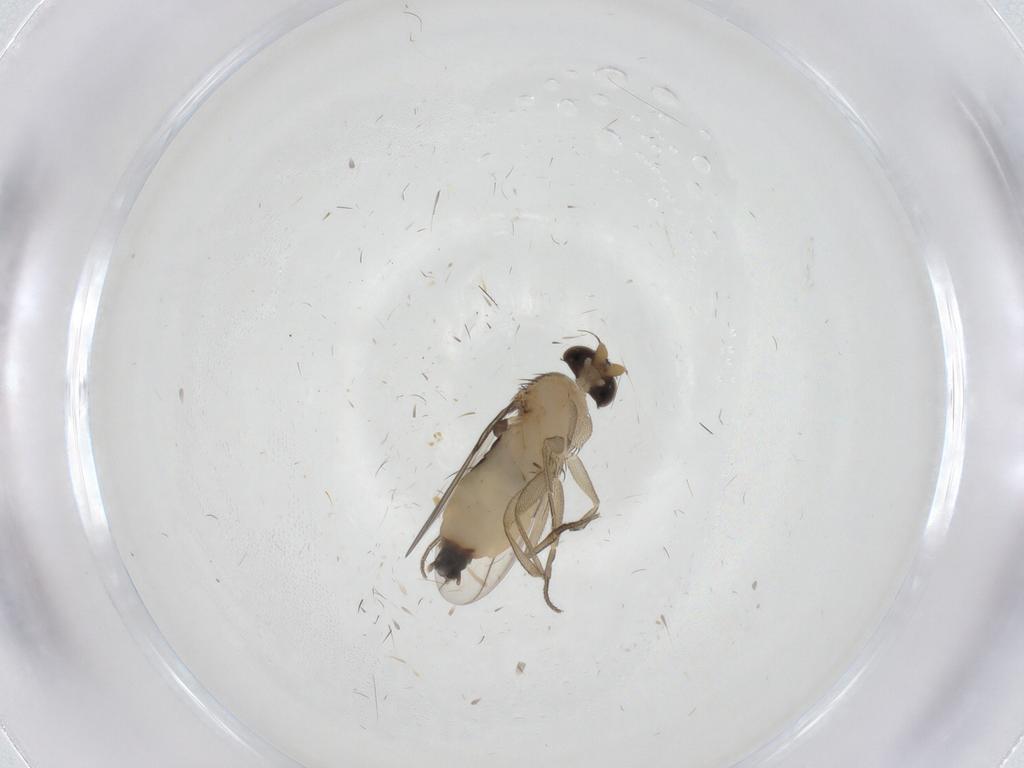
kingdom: Animalia
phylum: Arthropoda
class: Insecta
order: Diptera
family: Phoridae
